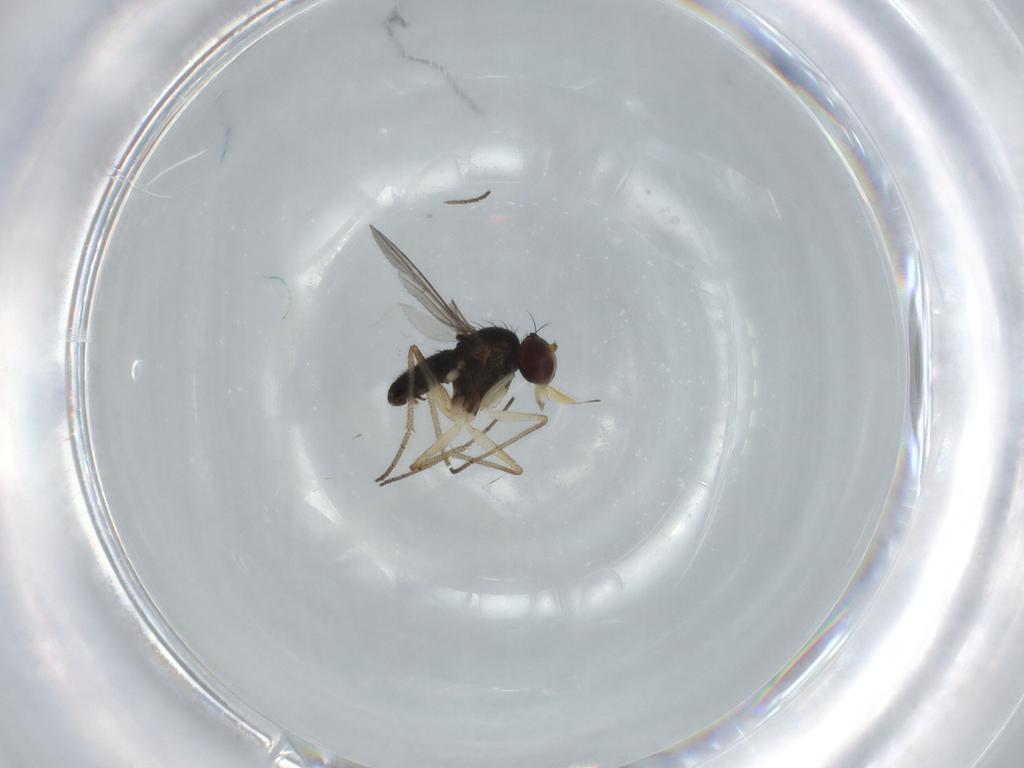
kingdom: Animalia
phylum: Arthropoda
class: Insecta
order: Diptera
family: Dolichopodidae
